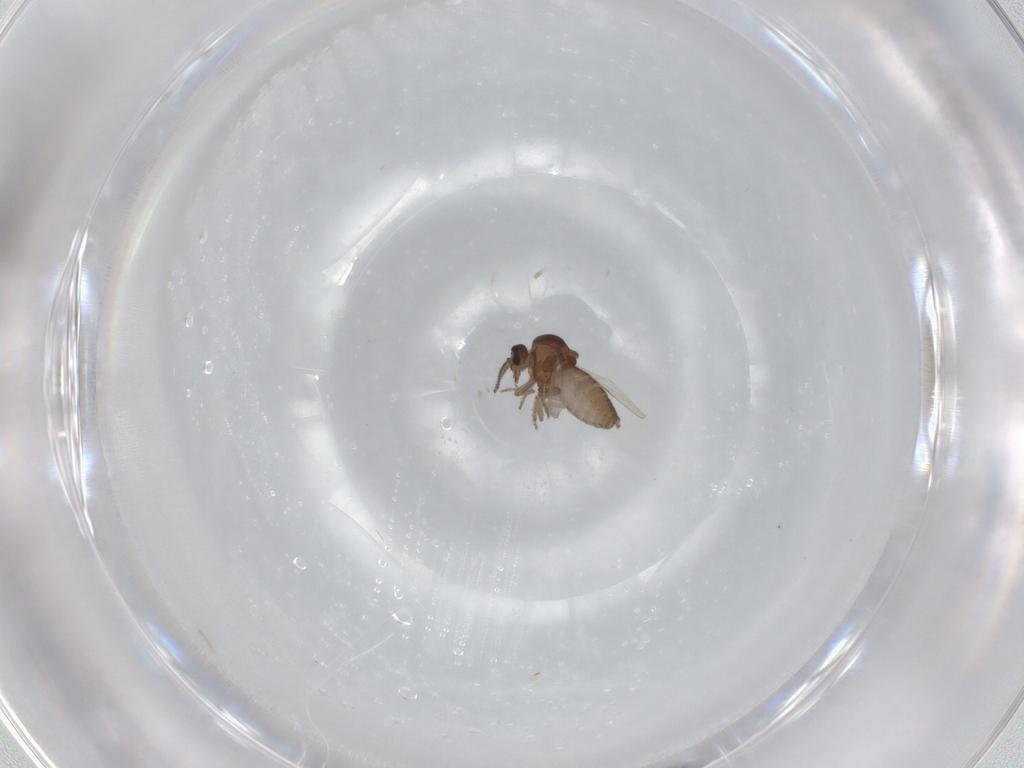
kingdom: Animalia
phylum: Arthropoda
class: Insecta
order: Diptera
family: Ceratopogonidae
